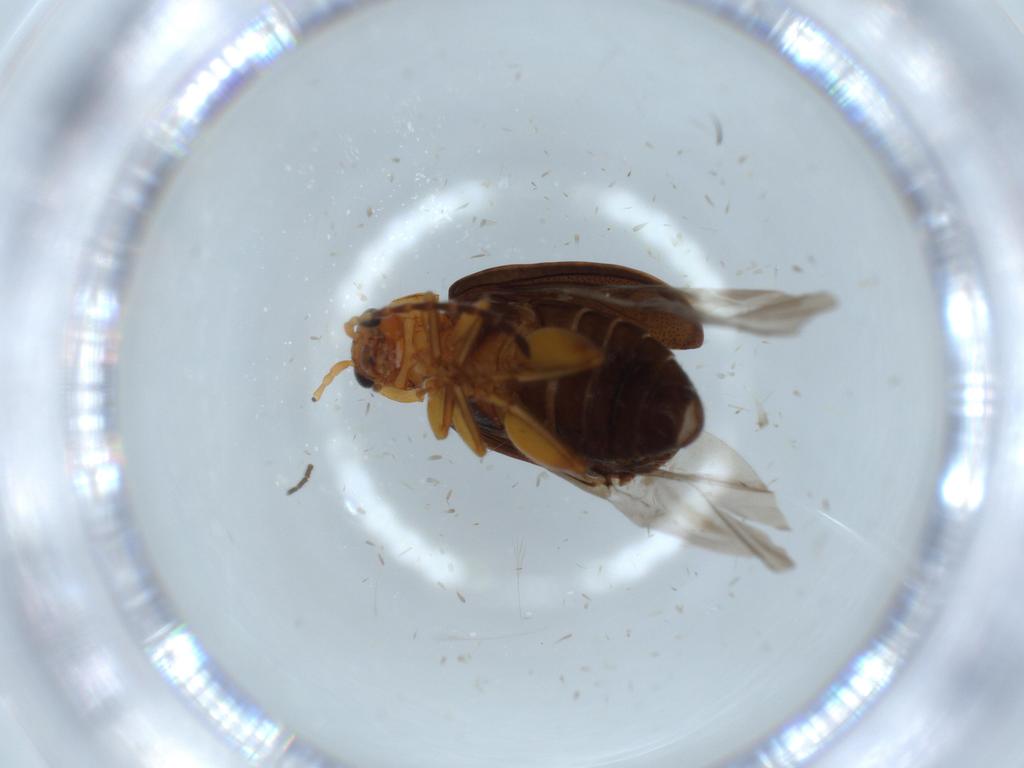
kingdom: Animalia
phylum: Arthropoda
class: Insecta
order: Coleoptera
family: Chrysomelidae
